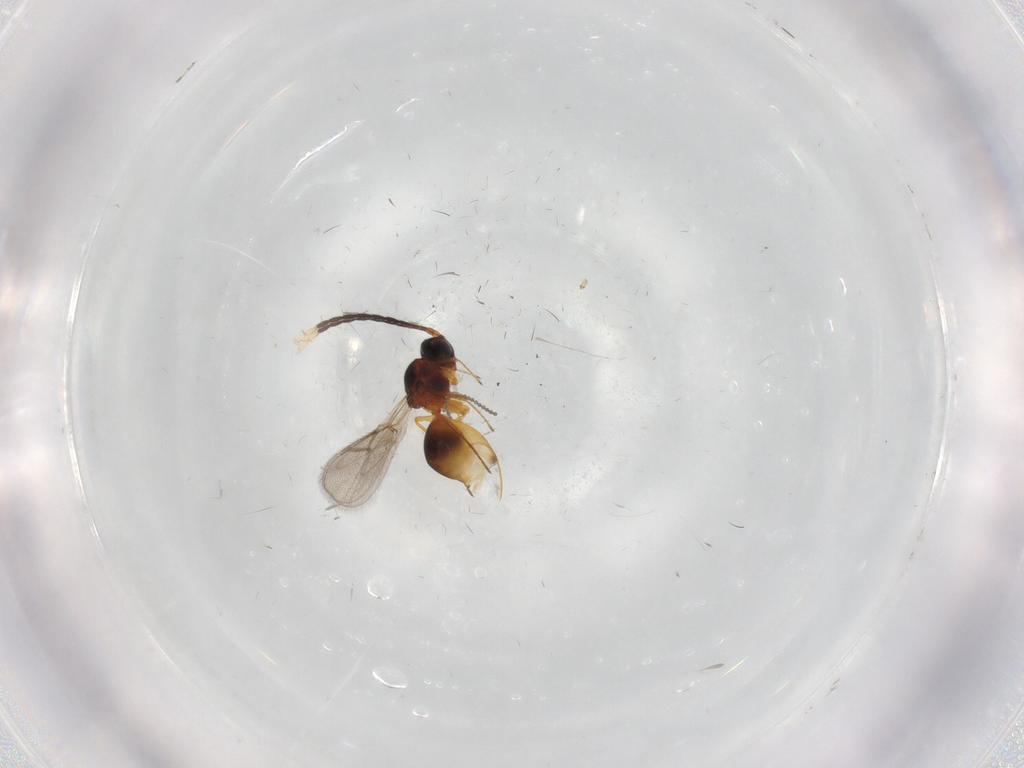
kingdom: Animalia
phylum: Arthropoda
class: Insecta
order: Hymenoptera
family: Figitidae
